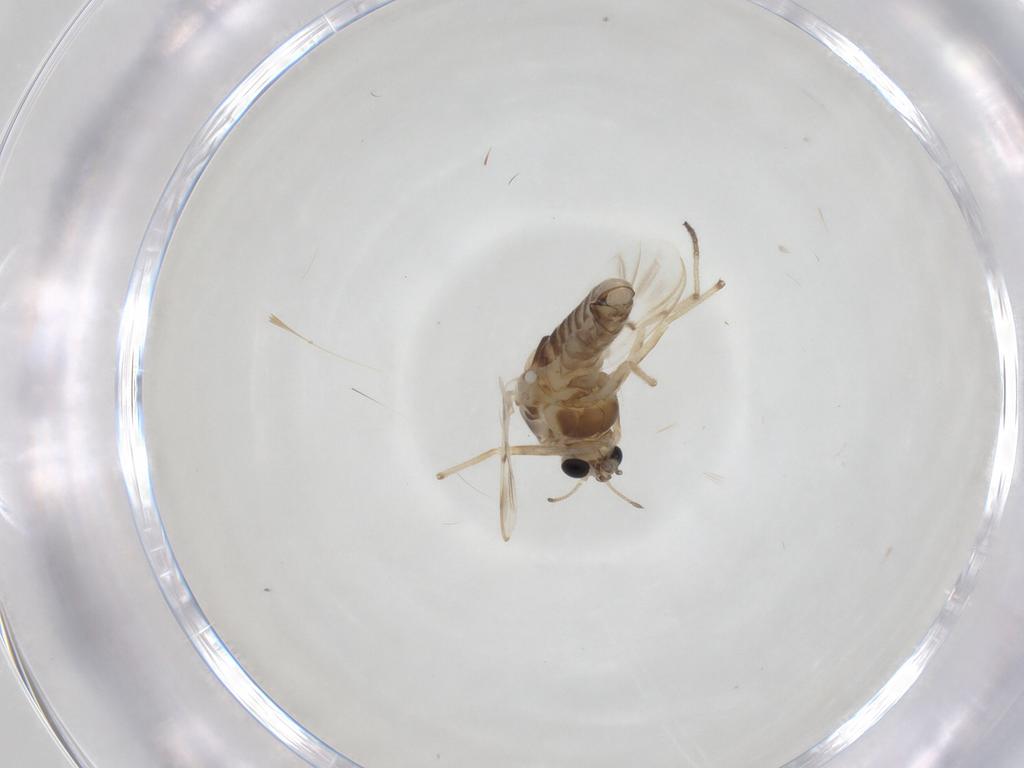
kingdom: Animalia
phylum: Arthropoda
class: Insecta
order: Diptera
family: Chironomidae
